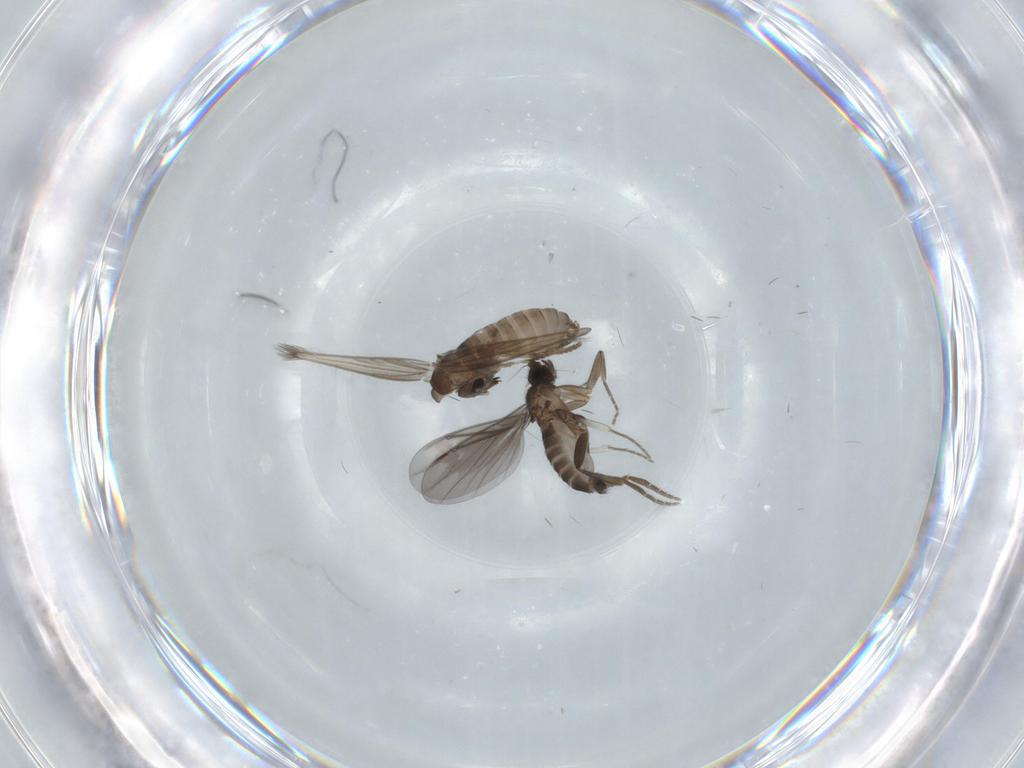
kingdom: Animalia
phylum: Arthropoda
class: Insecta
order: Diptera
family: Psychodidae
